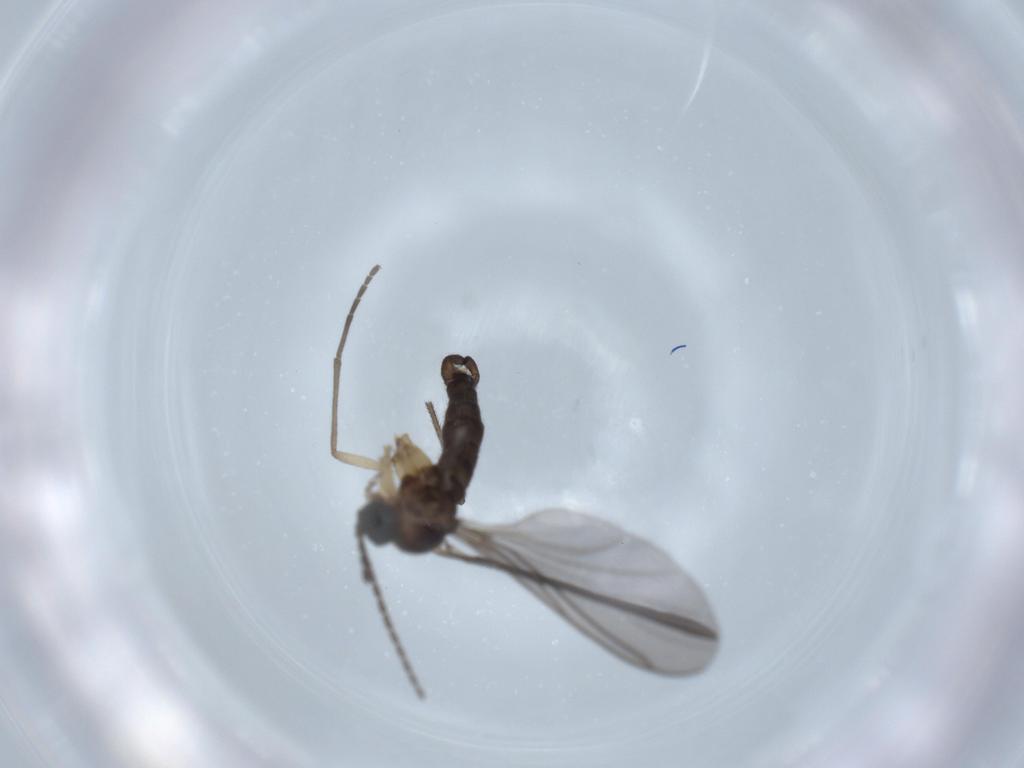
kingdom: Animalia
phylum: Arthropoda
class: Insecta
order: Diptera
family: Sciaridae
